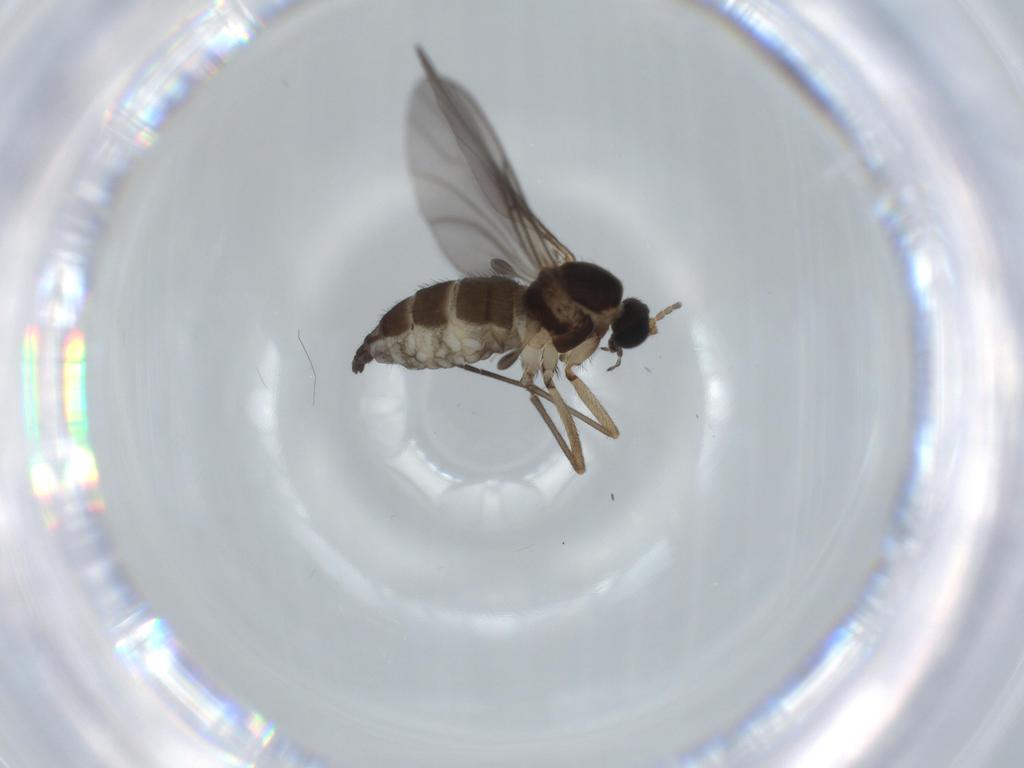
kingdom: Animalia
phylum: Arthropoda
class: Insecta
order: Diptera
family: Sciaridae
